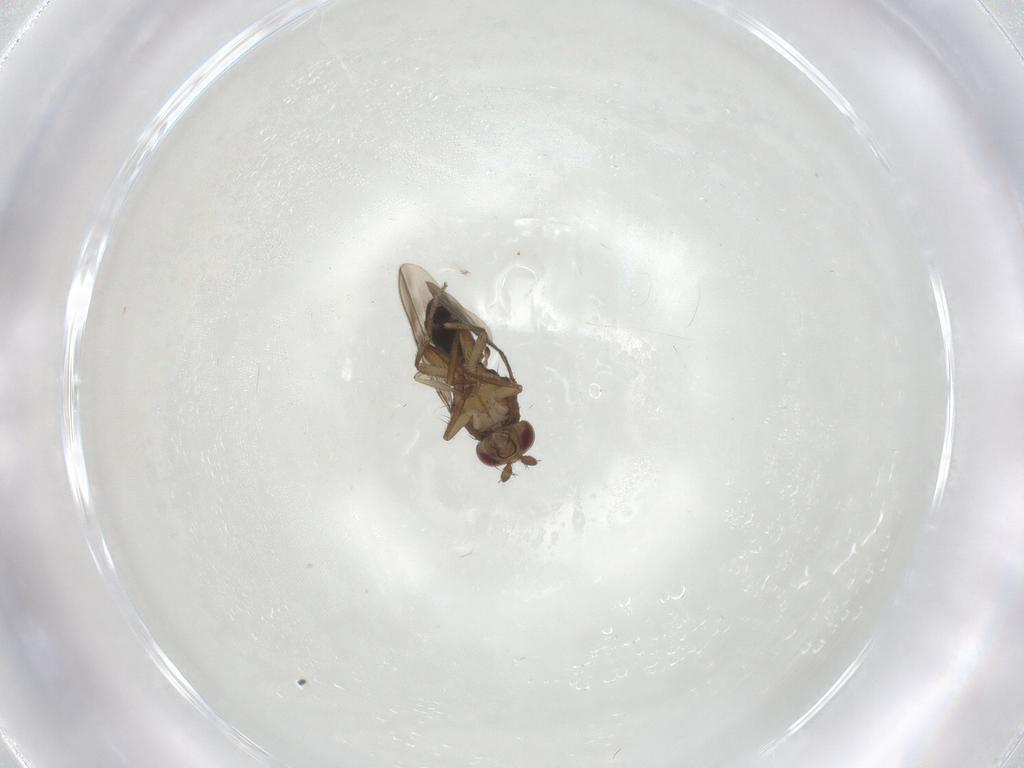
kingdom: Animalia
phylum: Arthropoda
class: Insecta
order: Diptera
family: Sphaeroceridae
